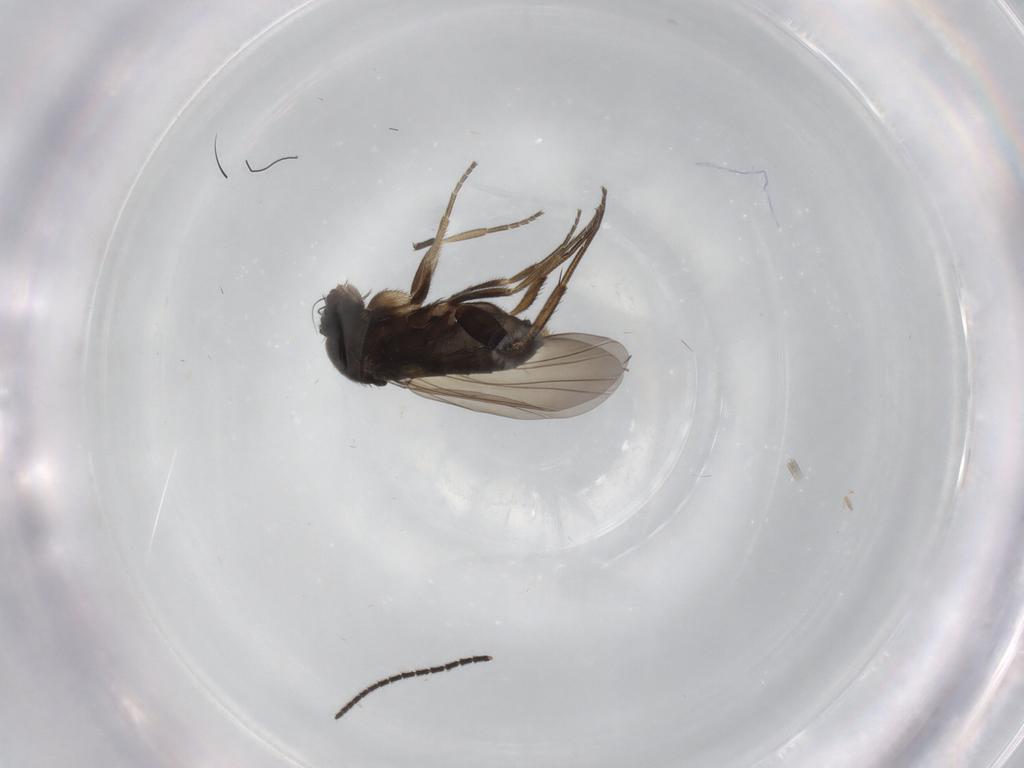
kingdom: Animalia
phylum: Arthropoda
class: Insecta
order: Diptera
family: Phoridae
